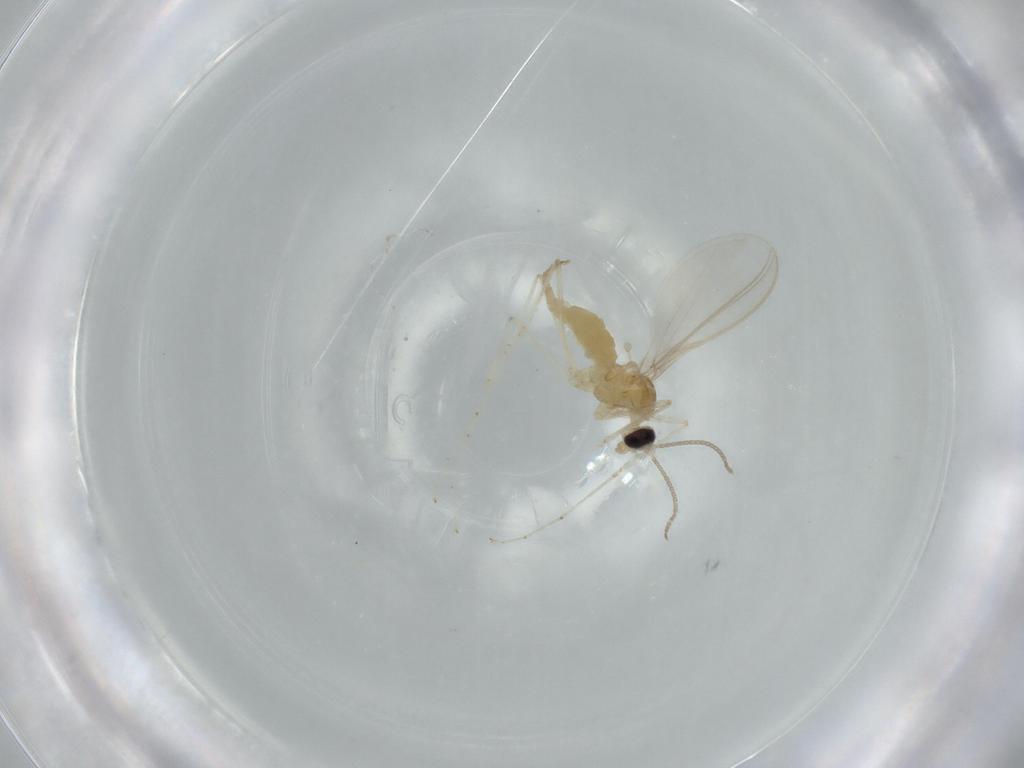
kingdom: Animalia
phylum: Arthropoda
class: Insecta
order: Diptera
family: Cecidomyiidae
